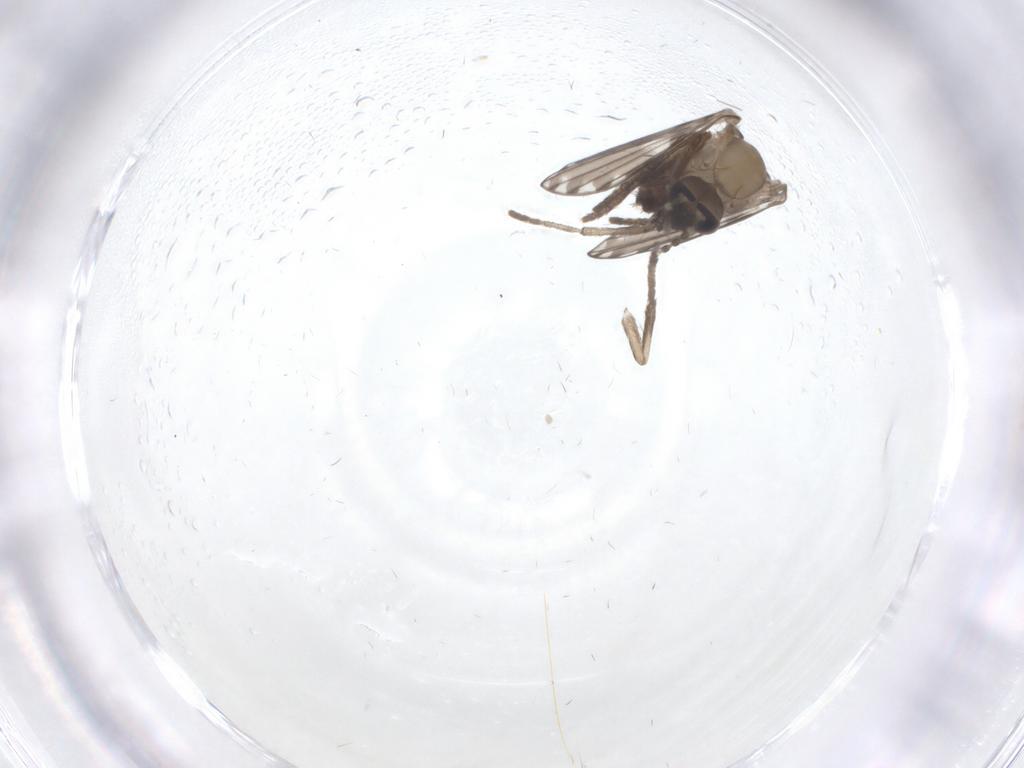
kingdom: Animalia
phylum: Arthropoda
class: Insecta
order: Diptera
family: Psychodidae
